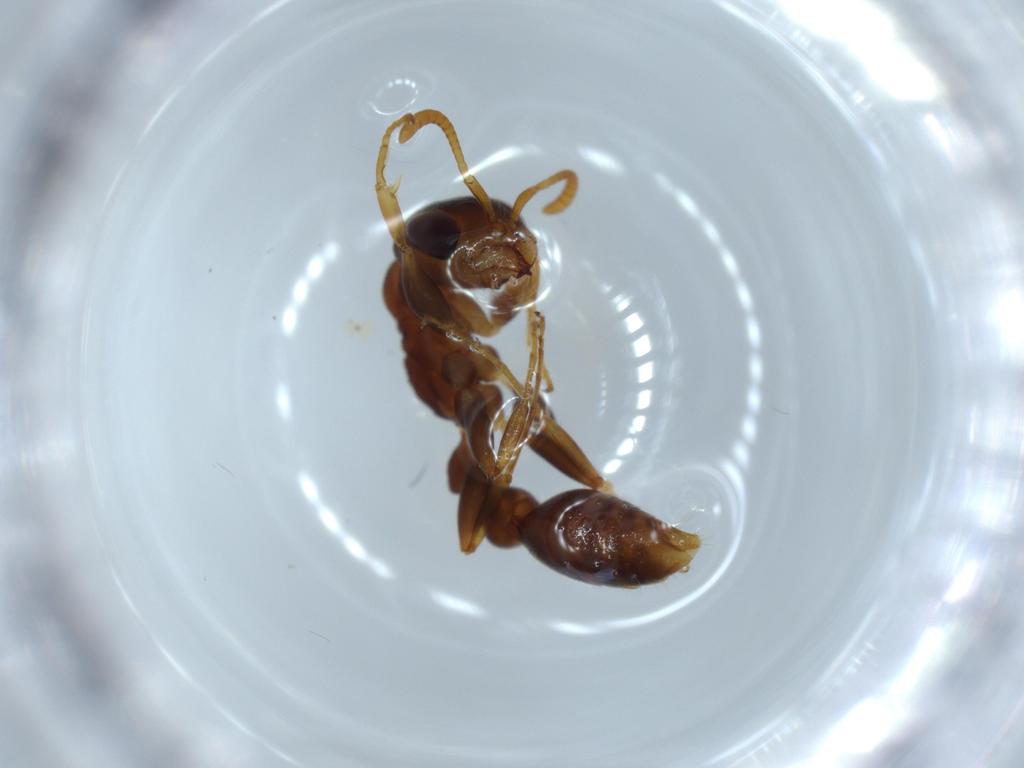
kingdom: Animalia
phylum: Arthropoda
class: Insecta
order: Hymenoptera
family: Formicidae
